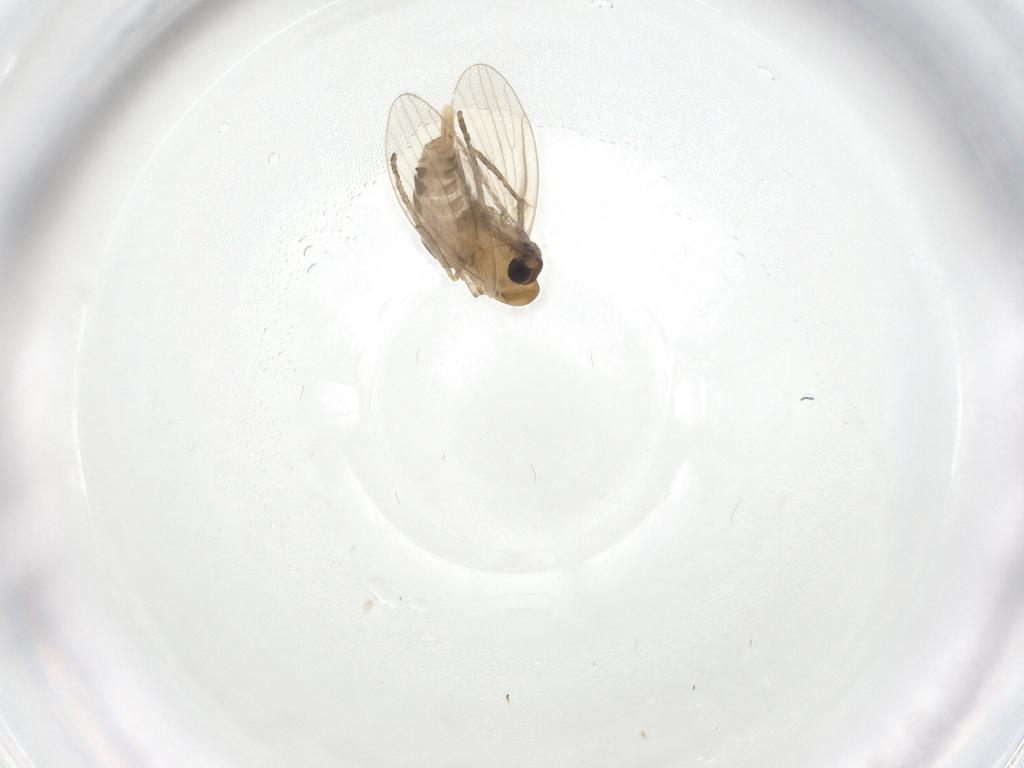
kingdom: Animalia
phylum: Arthropoda
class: Insecta
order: Diptera
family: Psychodidae
